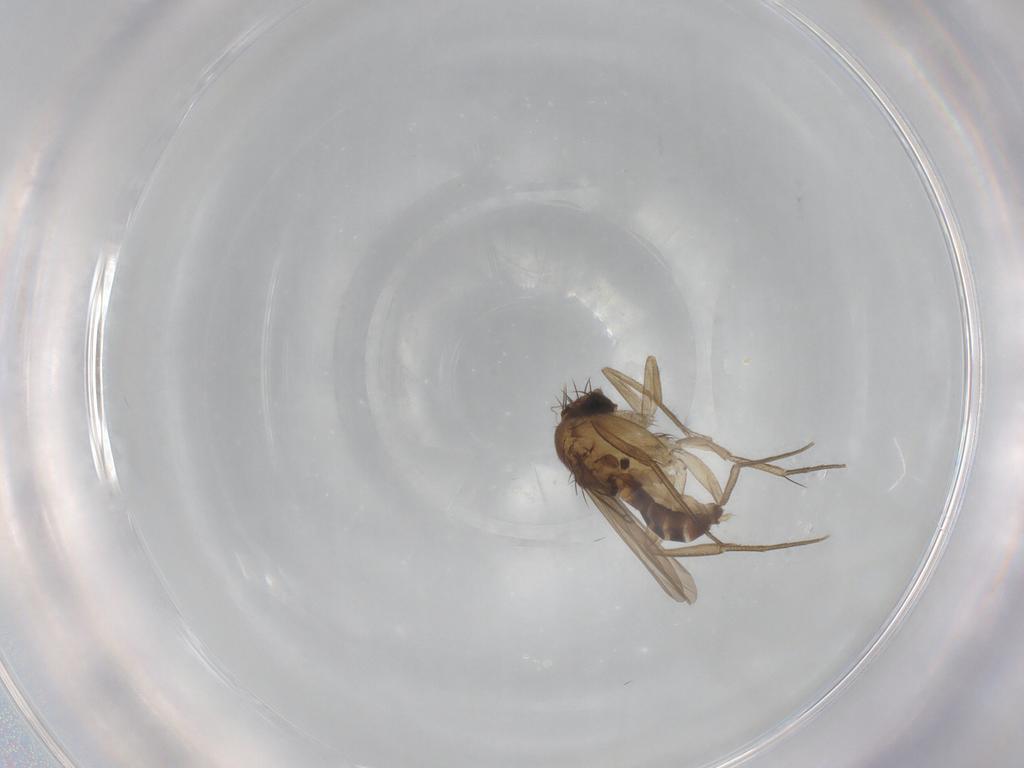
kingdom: Animalia
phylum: Arthropoda
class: Insecta
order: Diptera
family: Phoridae
